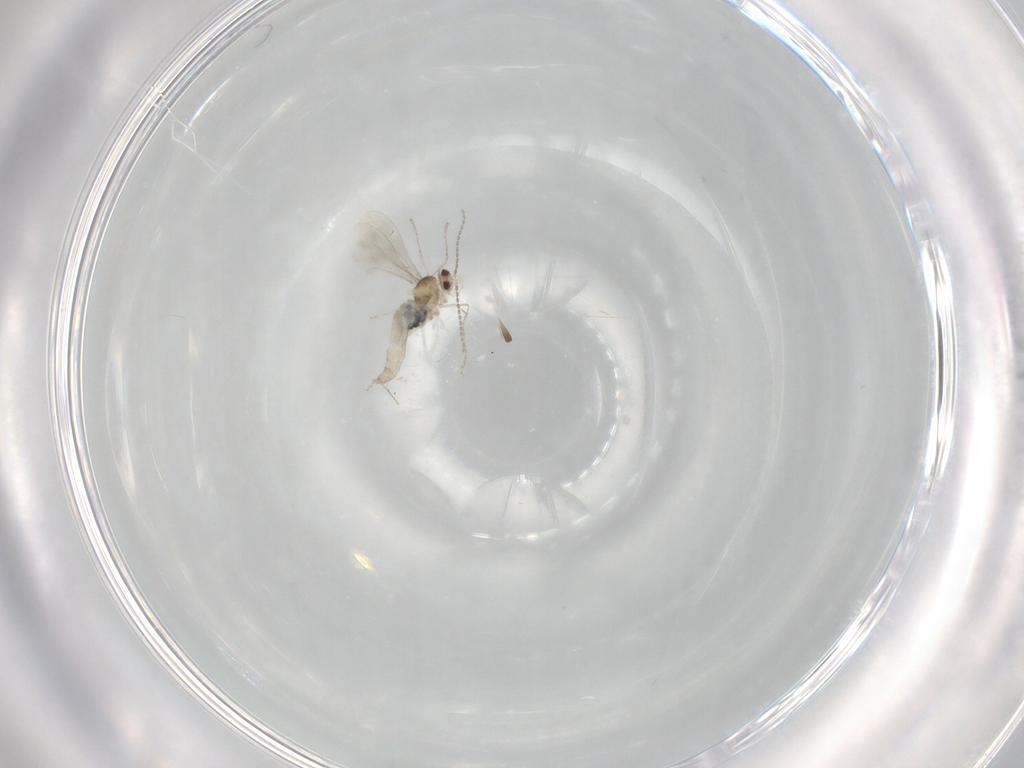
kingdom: Animalia
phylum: Arthropoda
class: Insecta
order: Diptera
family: Cecidomyiidae
